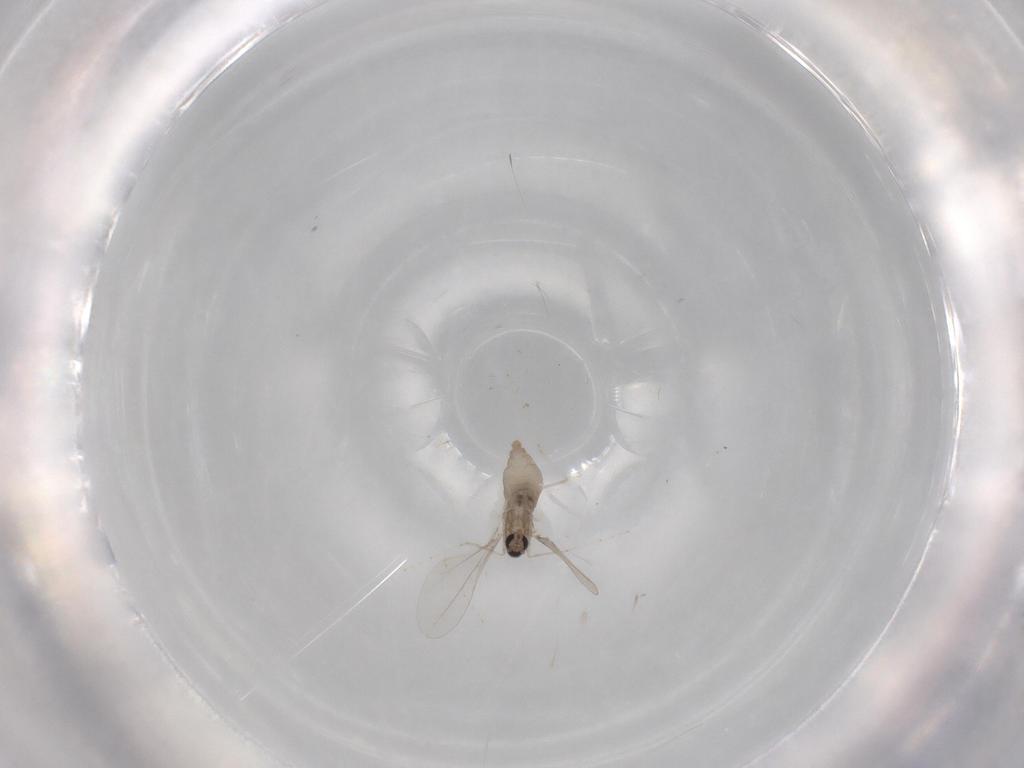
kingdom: Animalia
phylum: Arthropoda
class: Insecta
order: Diptera
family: Cecidomyiidae
